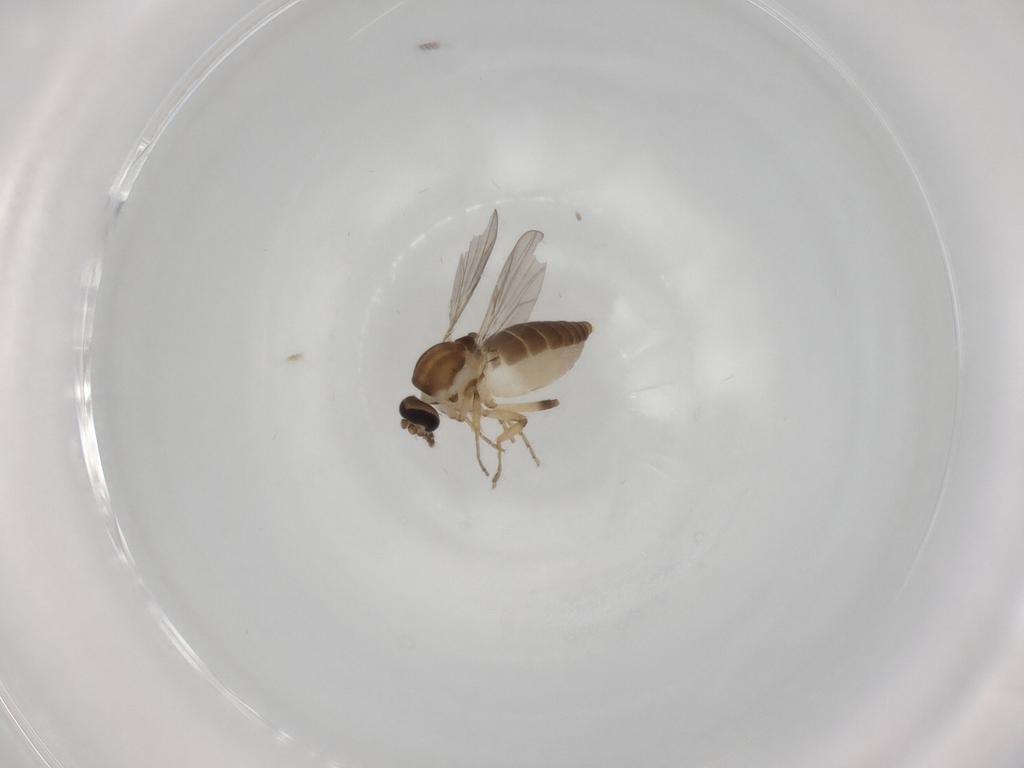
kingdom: Animalia
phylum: Arthropoda
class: Insecta
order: Diptera
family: Ceratopogonidae
